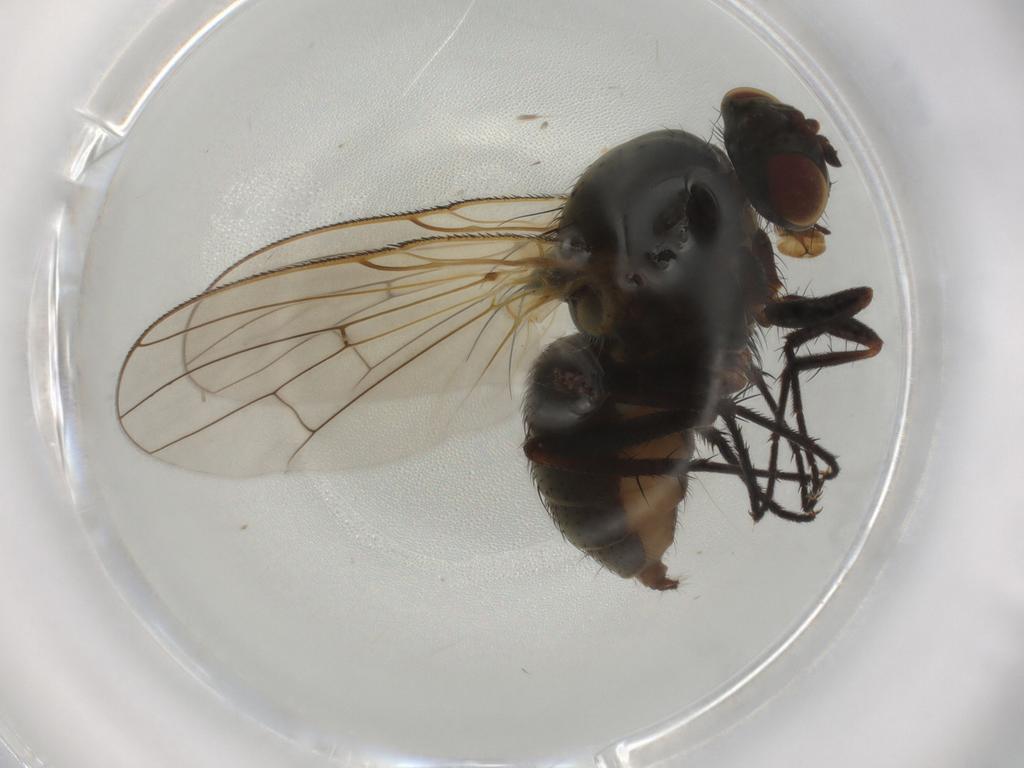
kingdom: Animalia
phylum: Arthropoda
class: Insecta
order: Diptera
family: Anthomyiidae
